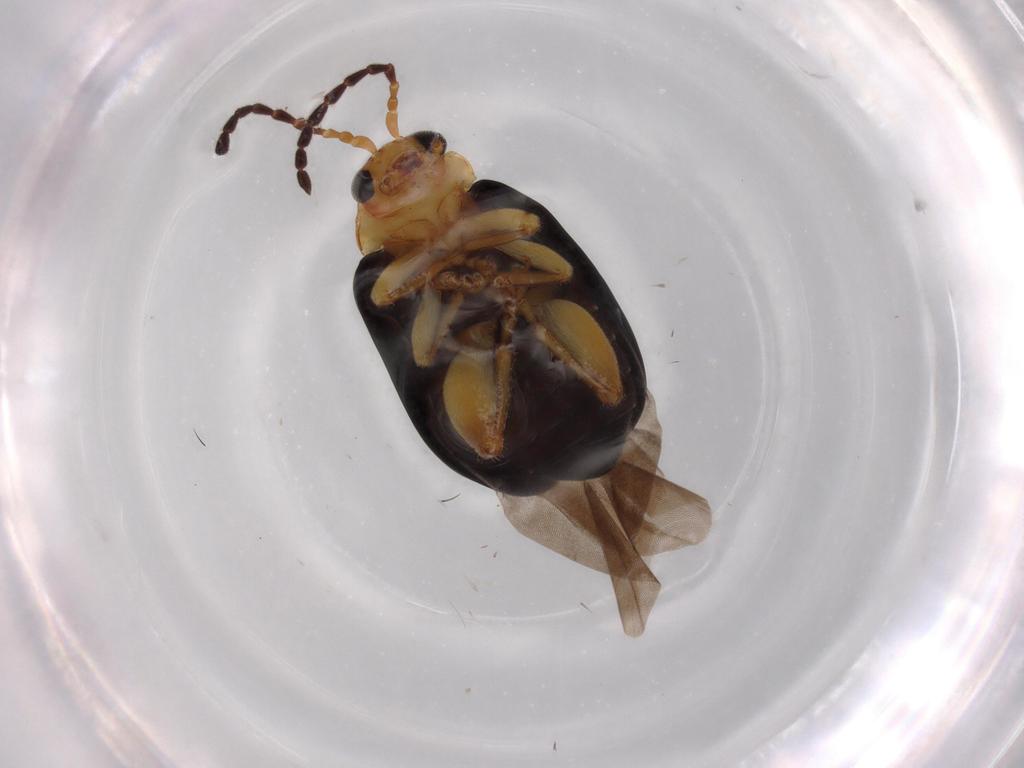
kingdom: Animalia
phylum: Arthropoda
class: Insecta
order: Coleoptera
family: Chrysomelidae
